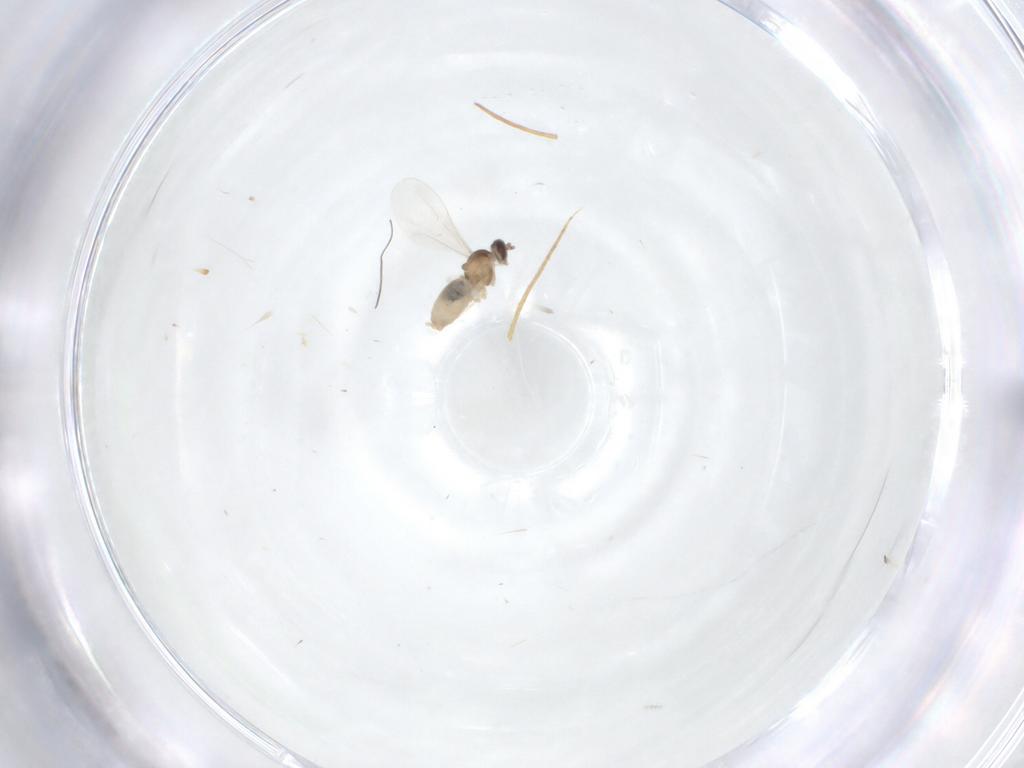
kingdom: Animalia
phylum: Arthropoda
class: Insecta
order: Diptera
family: Cecidomyiidae
